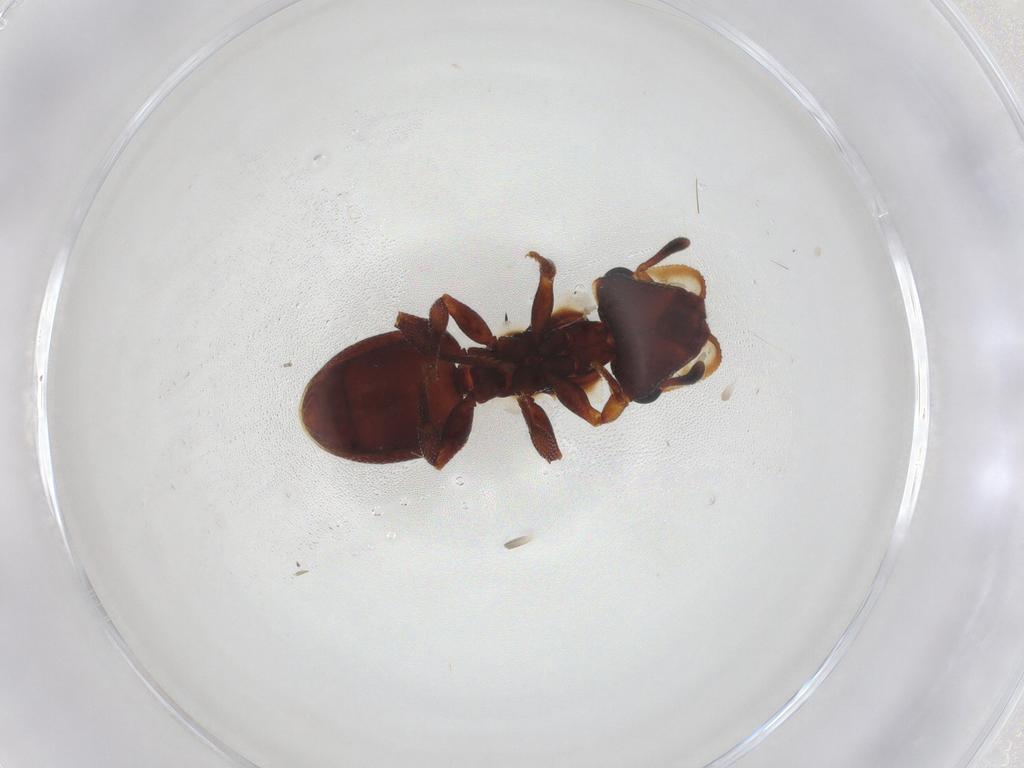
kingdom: Animalia
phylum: Arthropoda
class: Insecta
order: Hymenoptera
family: Formicidae
